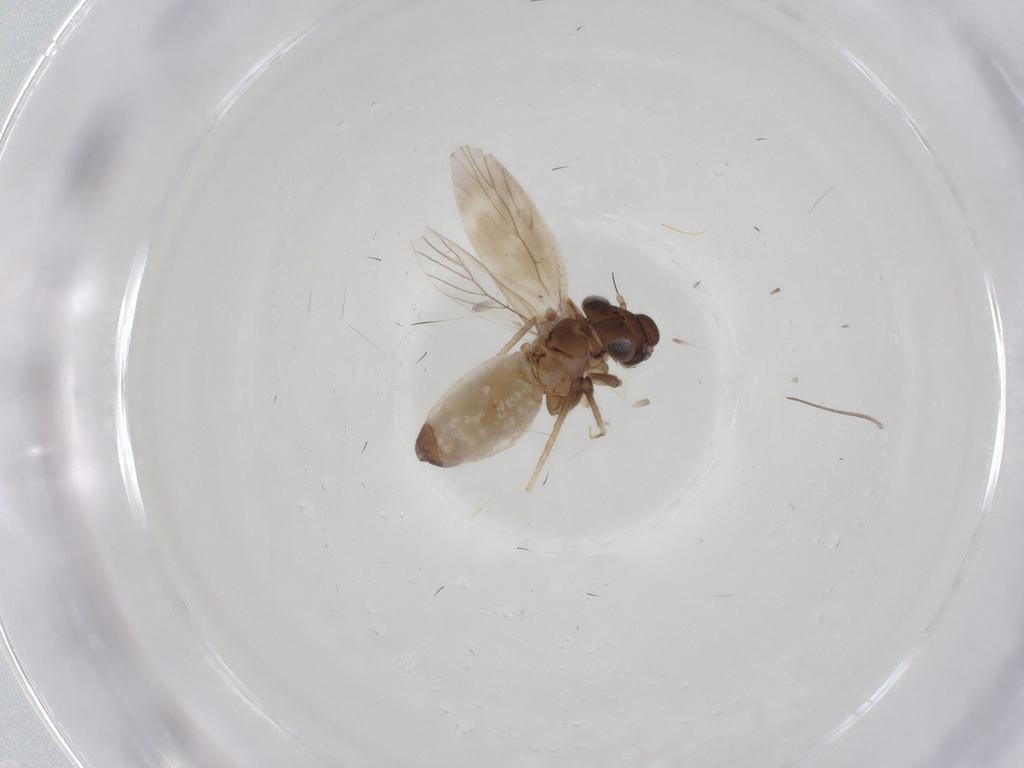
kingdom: Animalia
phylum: Arthropoda
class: Insecta
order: Psocodea
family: Lepidopsocidae
